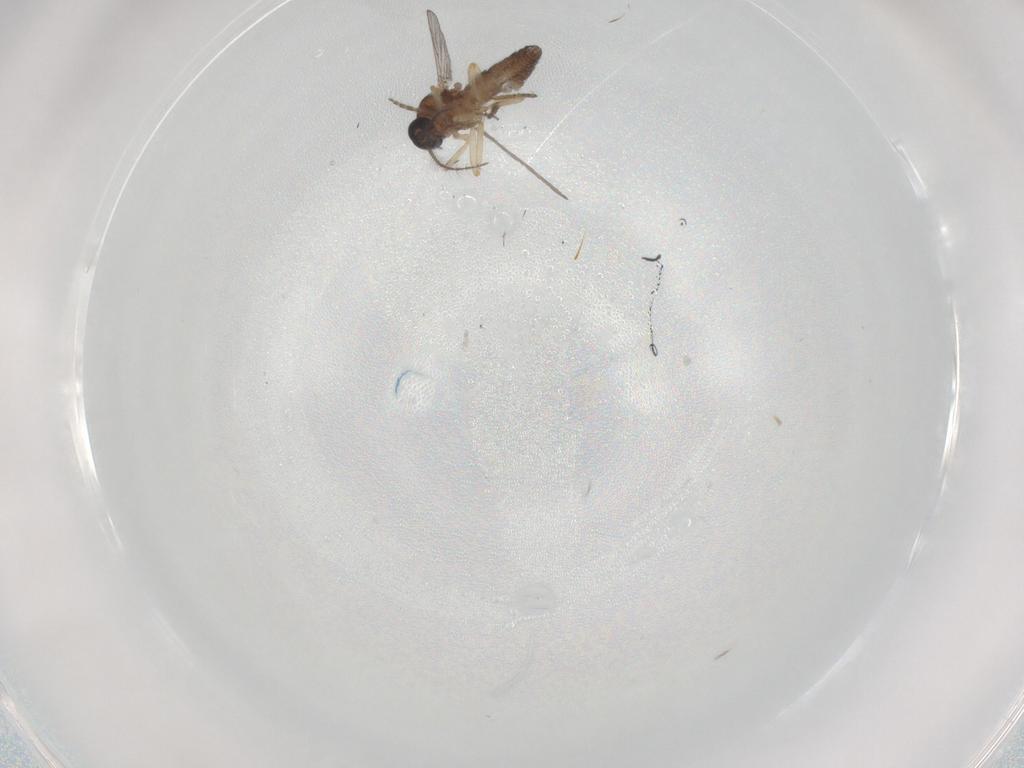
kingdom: Animalia
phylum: Arthropoda
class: Insecta
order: Diptera
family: Ceratopogonidae
